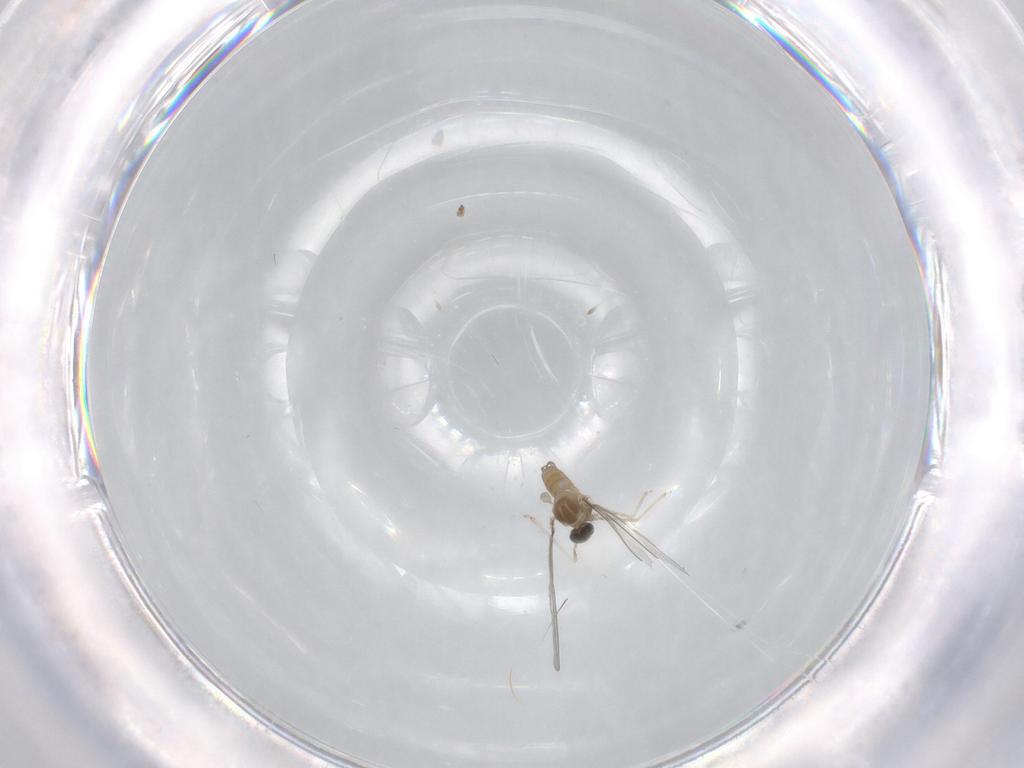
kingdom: Animalia
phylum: Arthropoda
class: Insecta
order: Diptera
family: Cecidomyiidae
